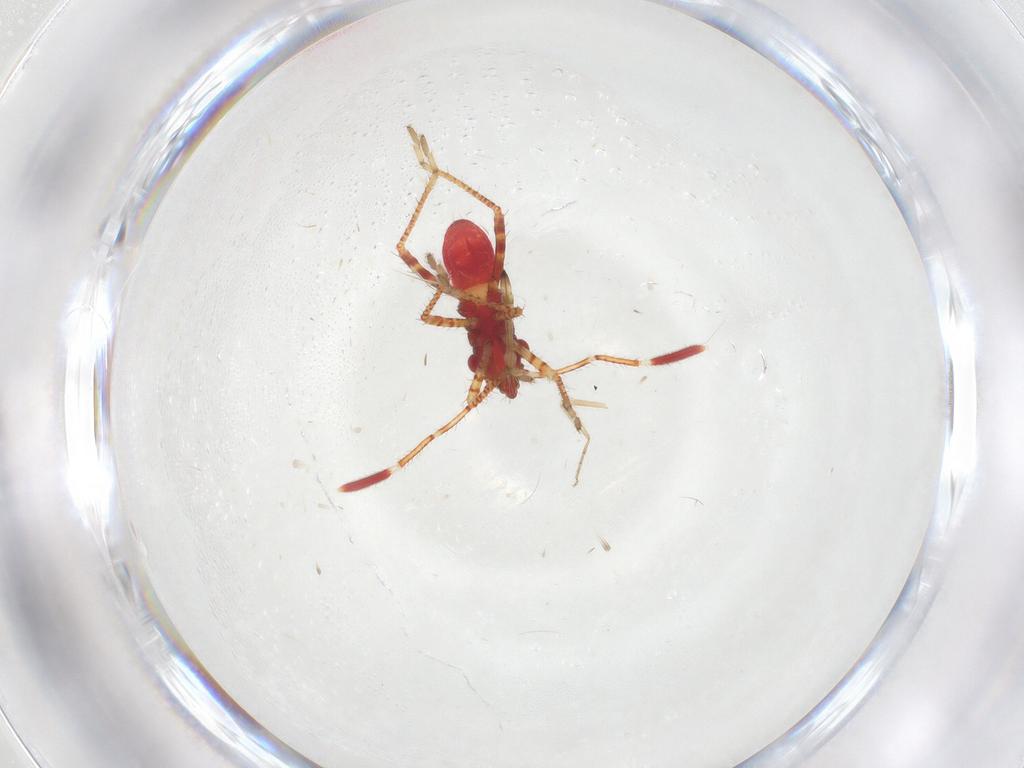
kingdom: Animalia
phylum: Arthropoda
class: Insecta
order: Hemiptera
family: Alydidae
